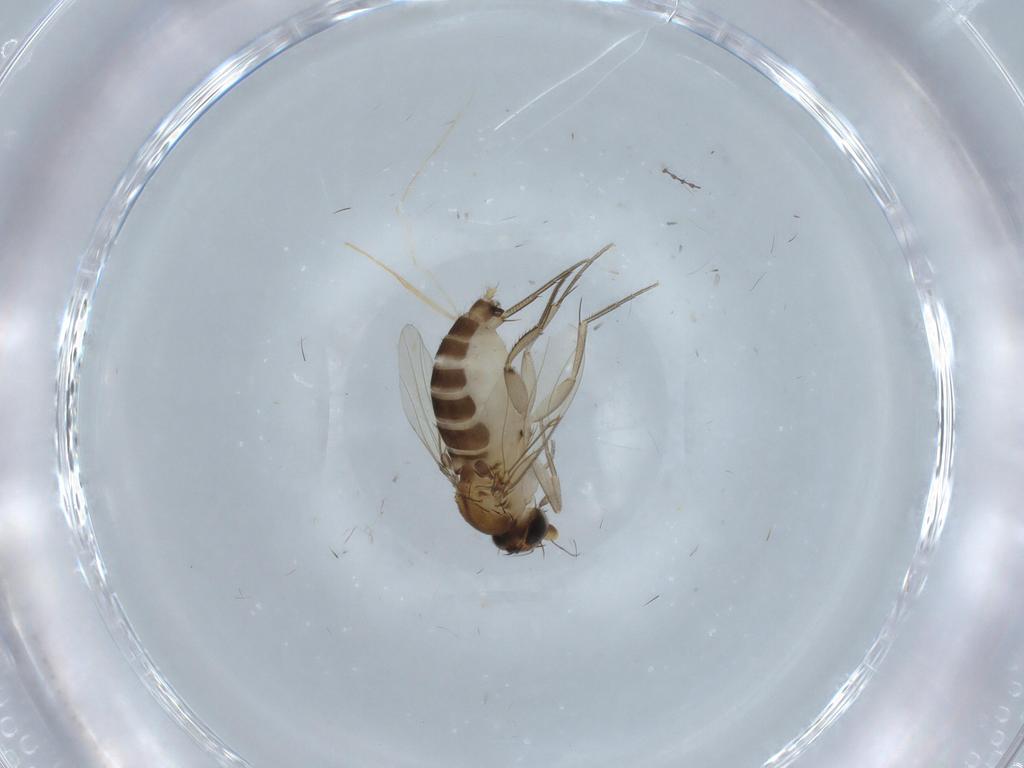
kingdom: Animalia
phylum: Arthropoda
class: Insecta
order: Diptera
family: Phoridae
